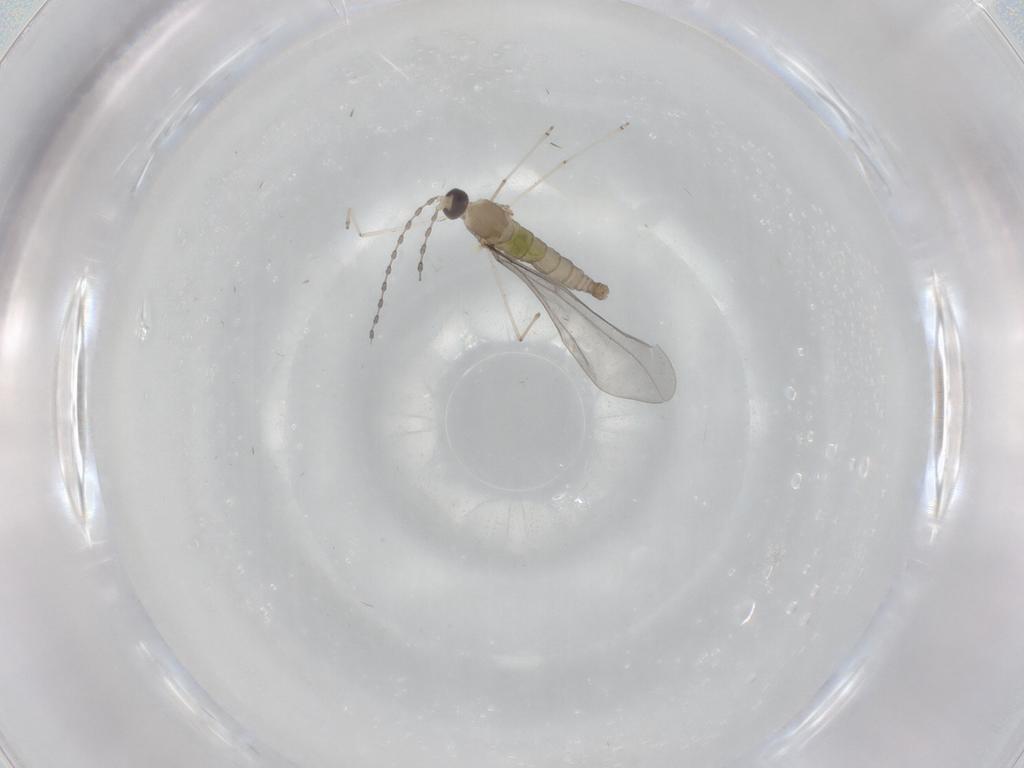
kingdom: Animalia
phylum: Arthropoda
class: Insecta
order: Diptera
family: Cecidomyiidae
